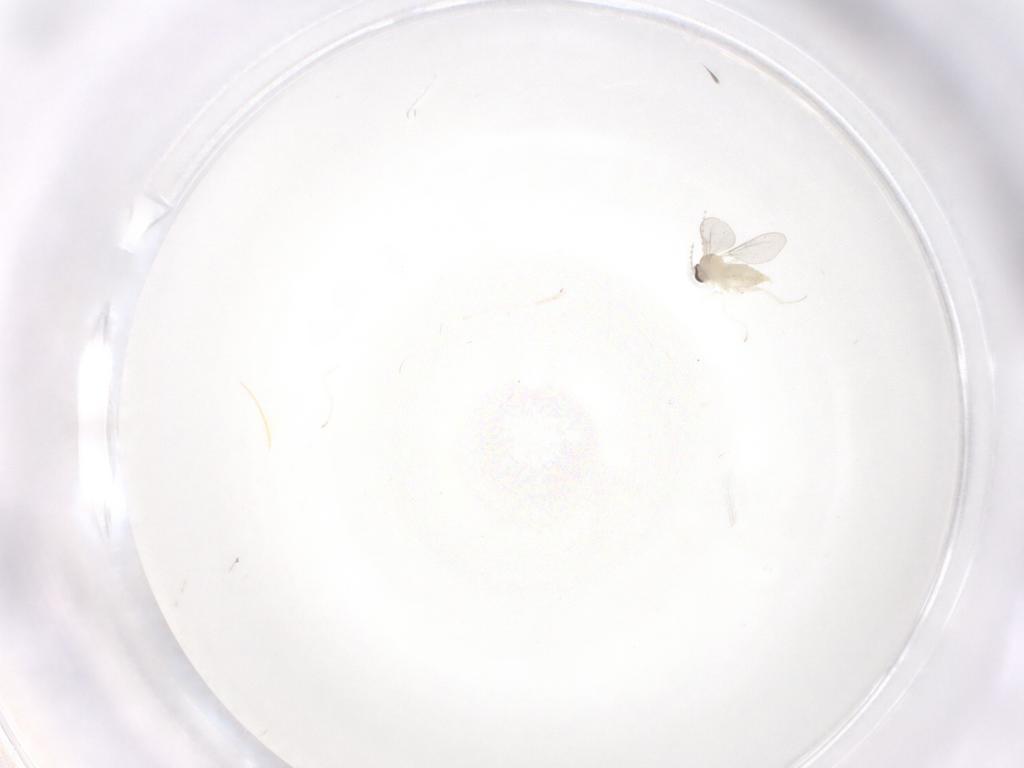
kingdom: Animalia
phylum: Arthropoda
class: Insecta
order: Diptera
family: Cecidomyiidae
